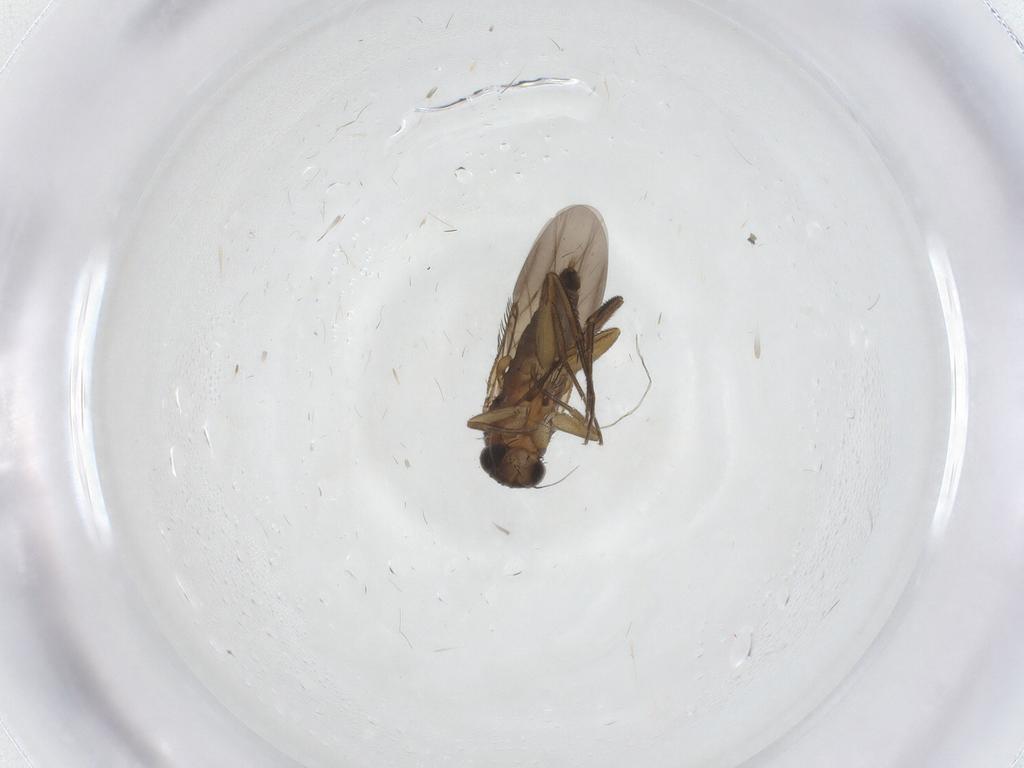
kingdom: Animalia
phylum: Arthropoda
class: Insecta
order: Diptera
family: Phoridae
